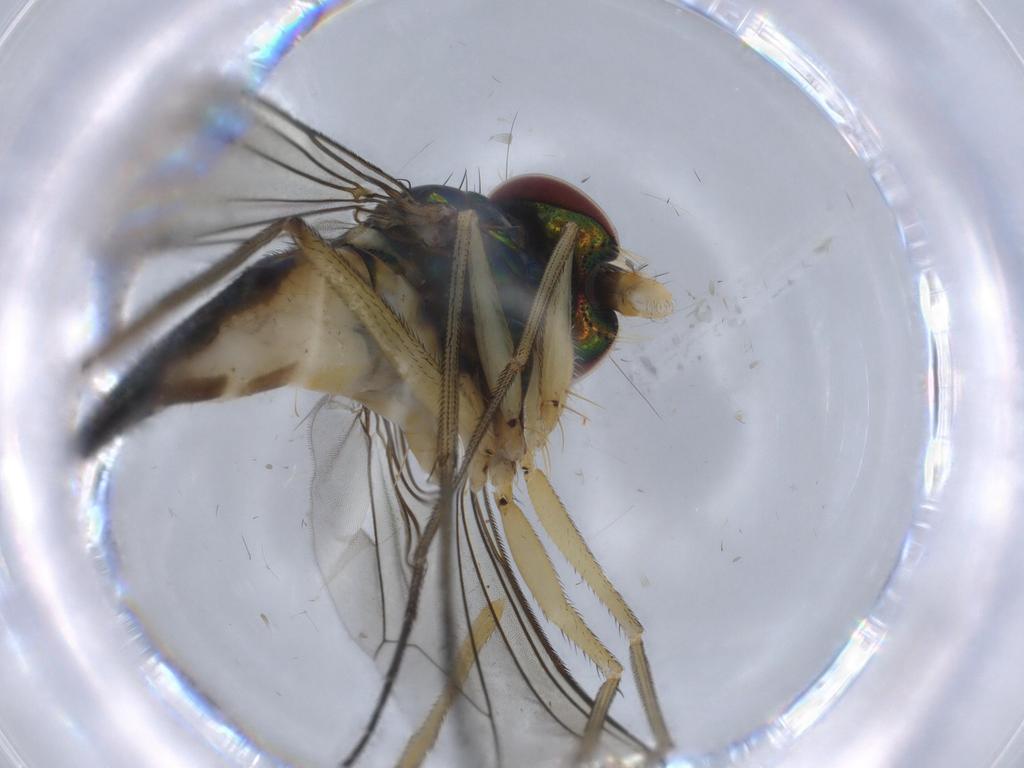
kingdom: Animalia
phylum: Arthropoda
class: Insecta
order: Diptera
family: Dolichopodidae
